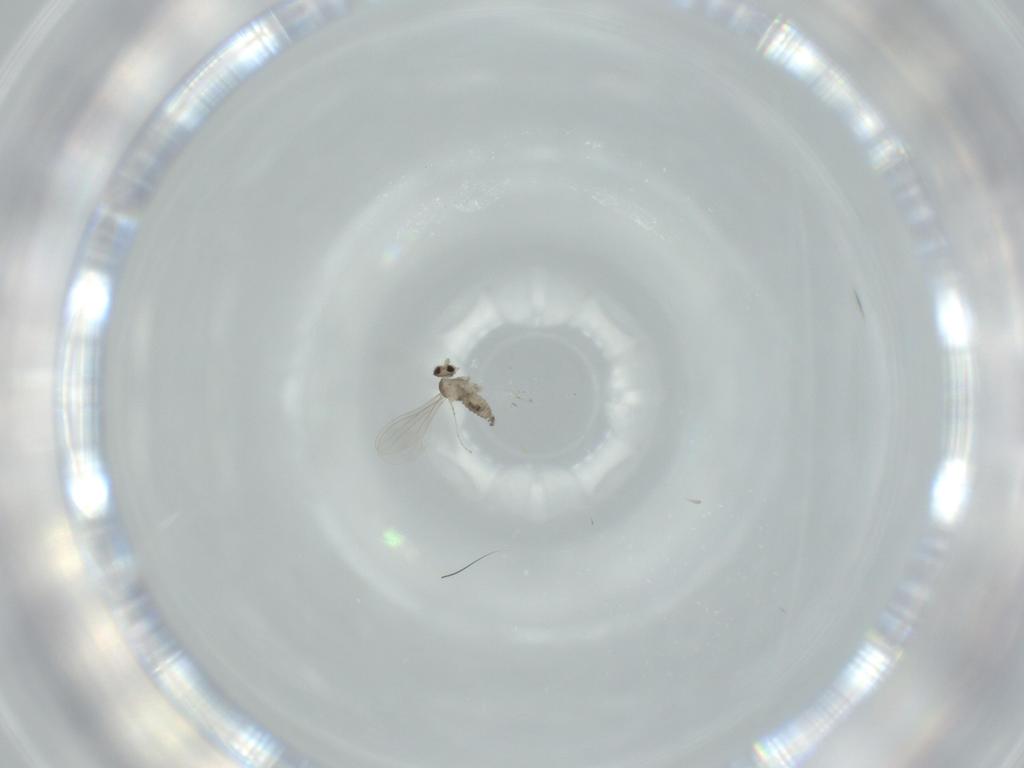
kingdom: Animalia
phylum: Arthropoda
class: Insecta
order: Diptera
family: Cecidomyiidae
